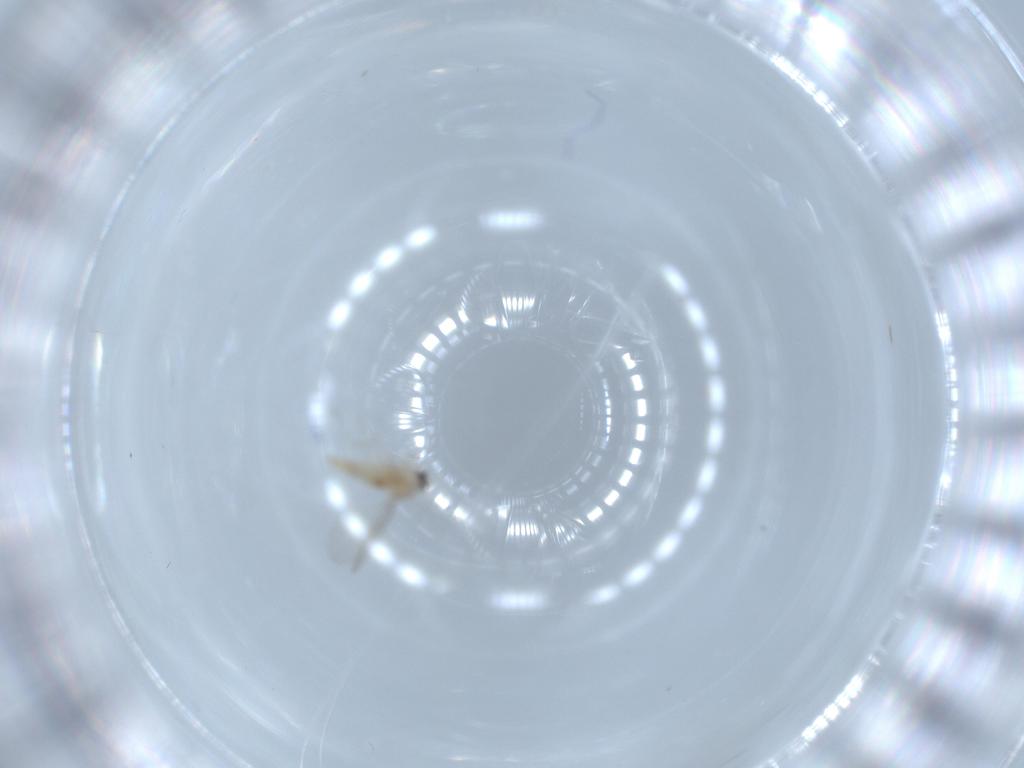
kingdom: Animalia
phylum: Arthropoda
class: Insecta
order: Diptera
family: Cecidomyiidae
